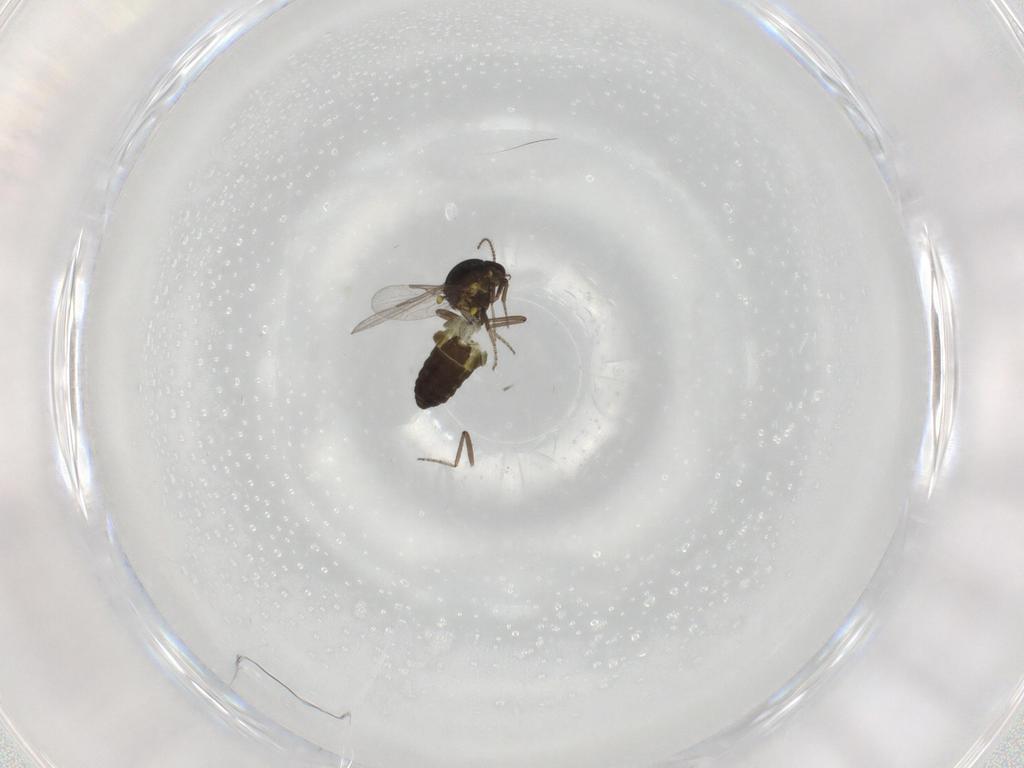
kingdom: Animalia
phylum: Arthropoda
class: Insecta
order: Diptera
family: Ceratopogonidae
